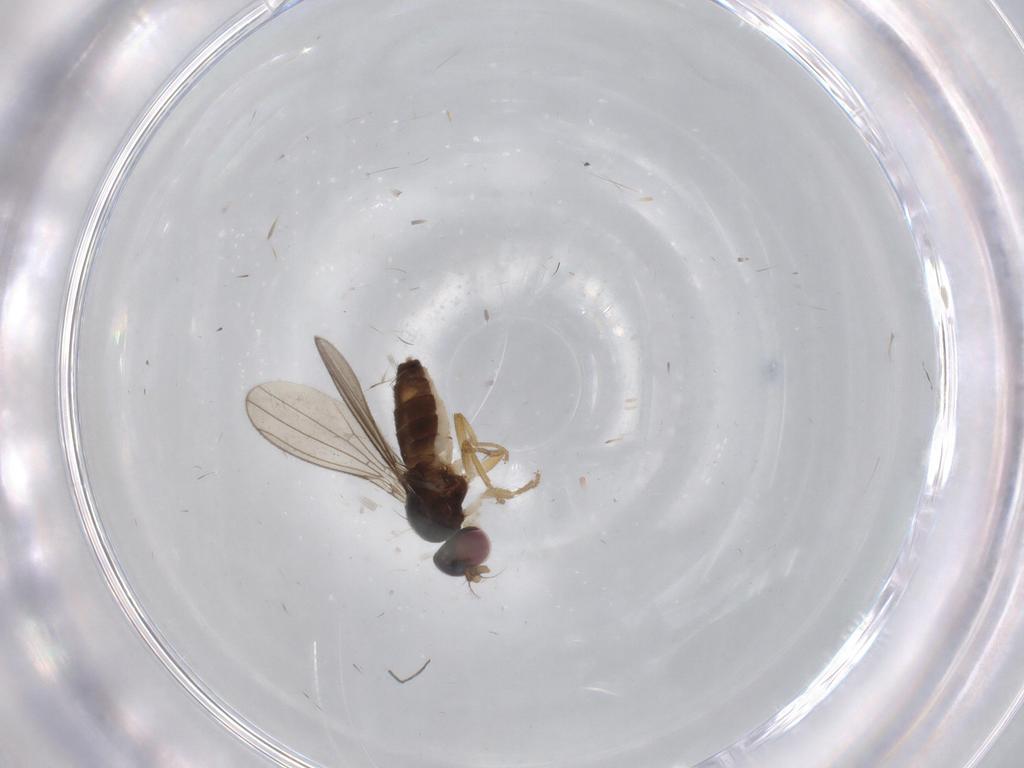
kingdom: Animalia
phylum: Arthropoda
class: Insecta
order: Diptera
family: Anthomyzidae
